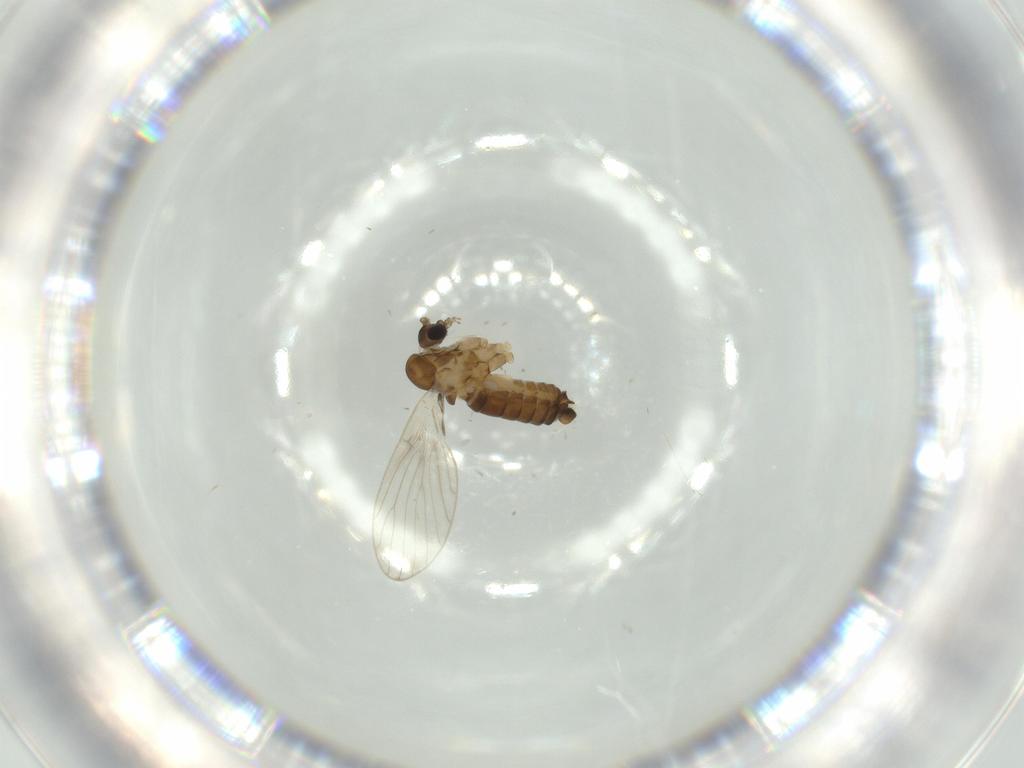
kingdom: Animalia
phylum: Arthropoda
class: Insecta
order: Diptera
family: Psychodidae
